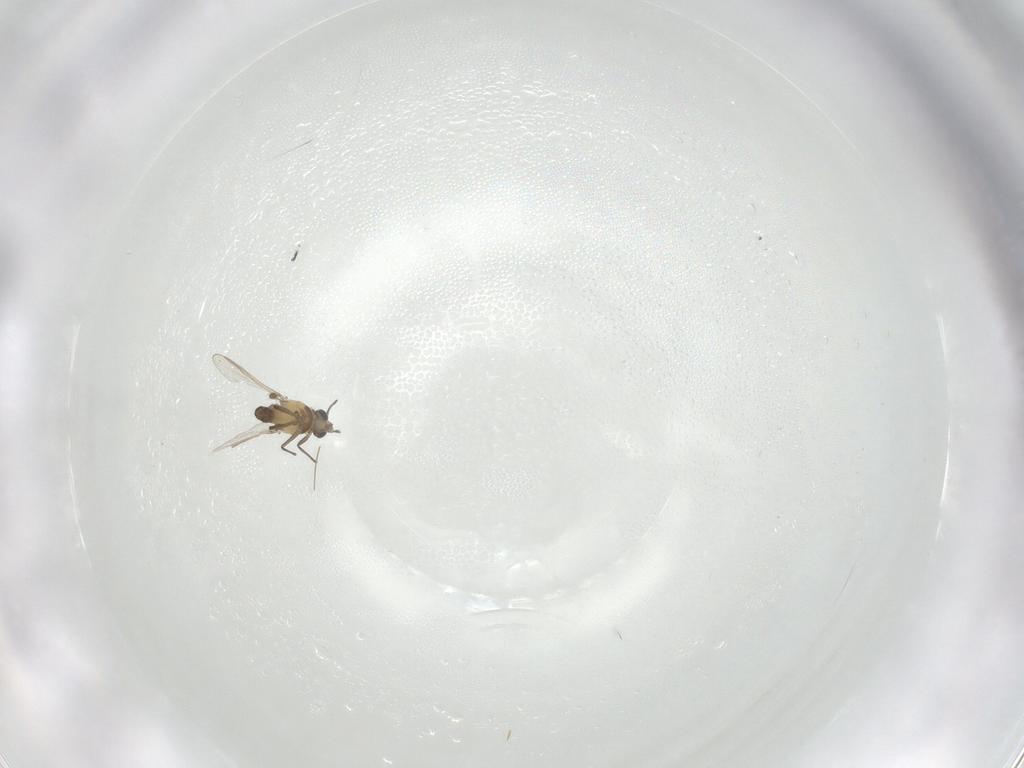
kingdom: Animalia
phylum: Arthropoda
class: Insecta
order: Diptera
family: Chironomidae
